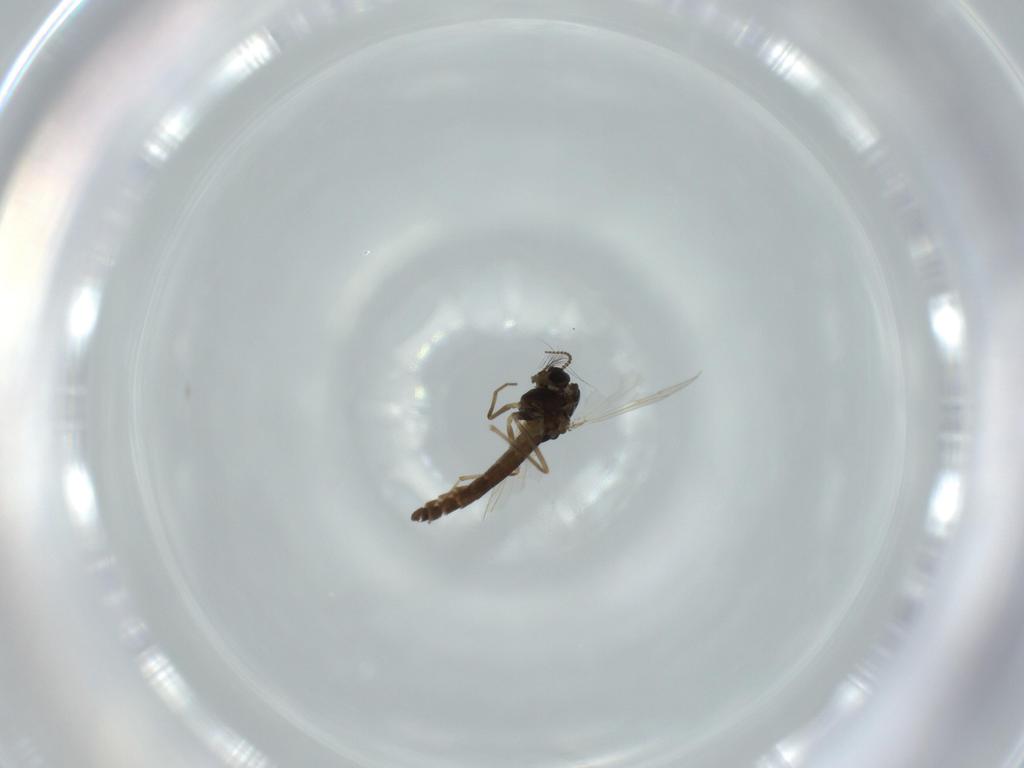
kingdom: Animalia
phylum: Arthropoda
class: Insecta
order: Diptera
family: Chironomidae
